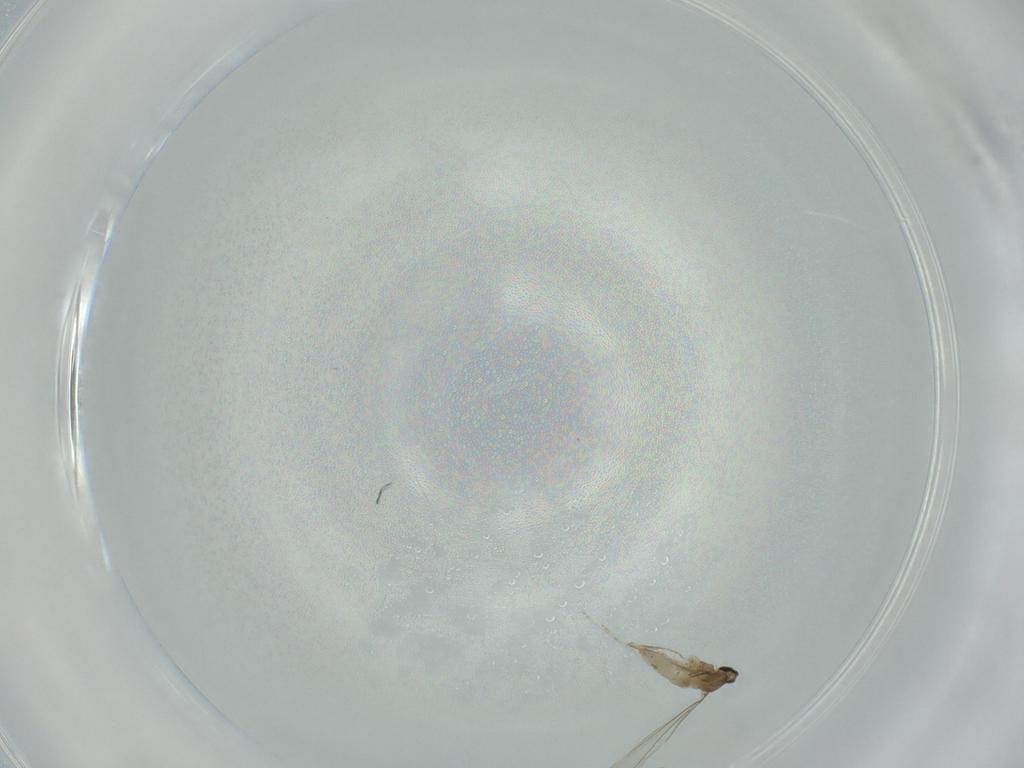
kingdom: Animalia
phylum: Arthropoda
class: Insecta
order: Diptera
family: Cecidomyiidae
